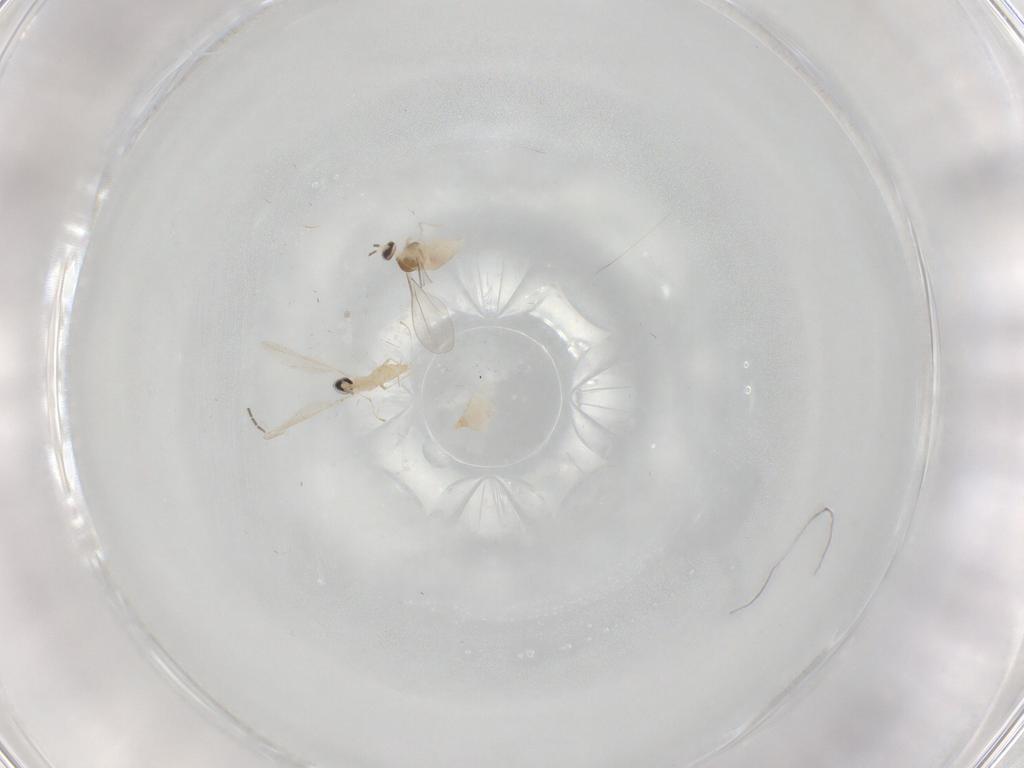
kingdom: Animalia
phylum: Arthropoda
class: Insecta
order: Diptera
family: Cecidomyiidae
